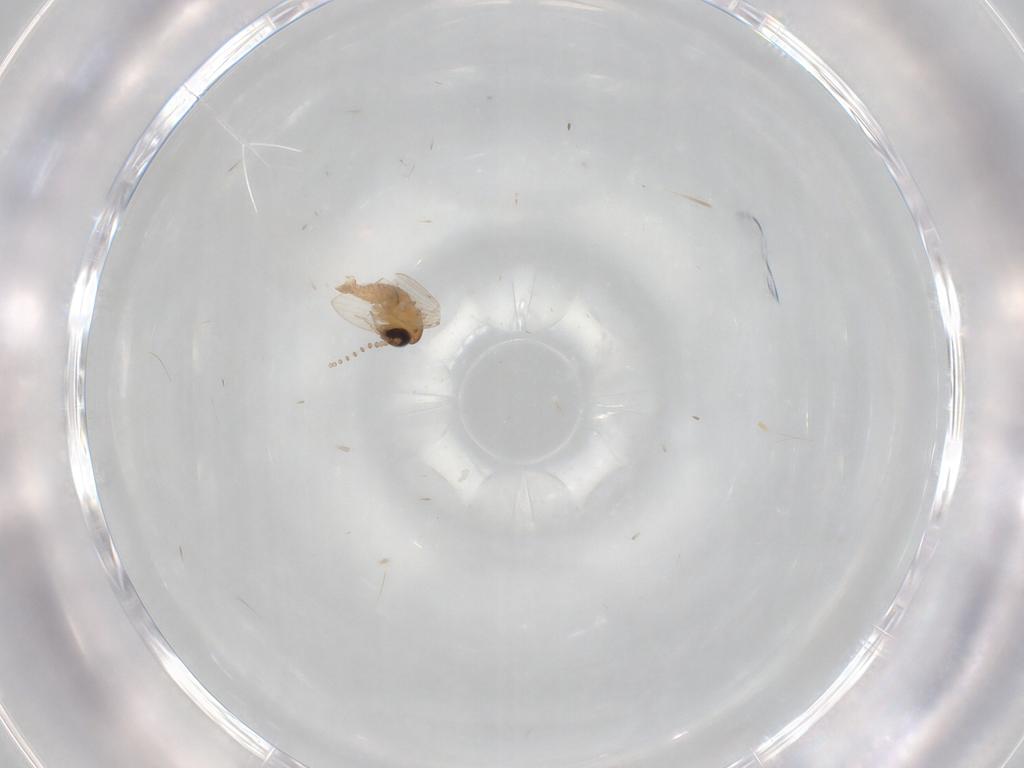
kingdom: Animalia
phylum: Arthropoda
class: Insecta
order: Diptera
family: Psychodidae
